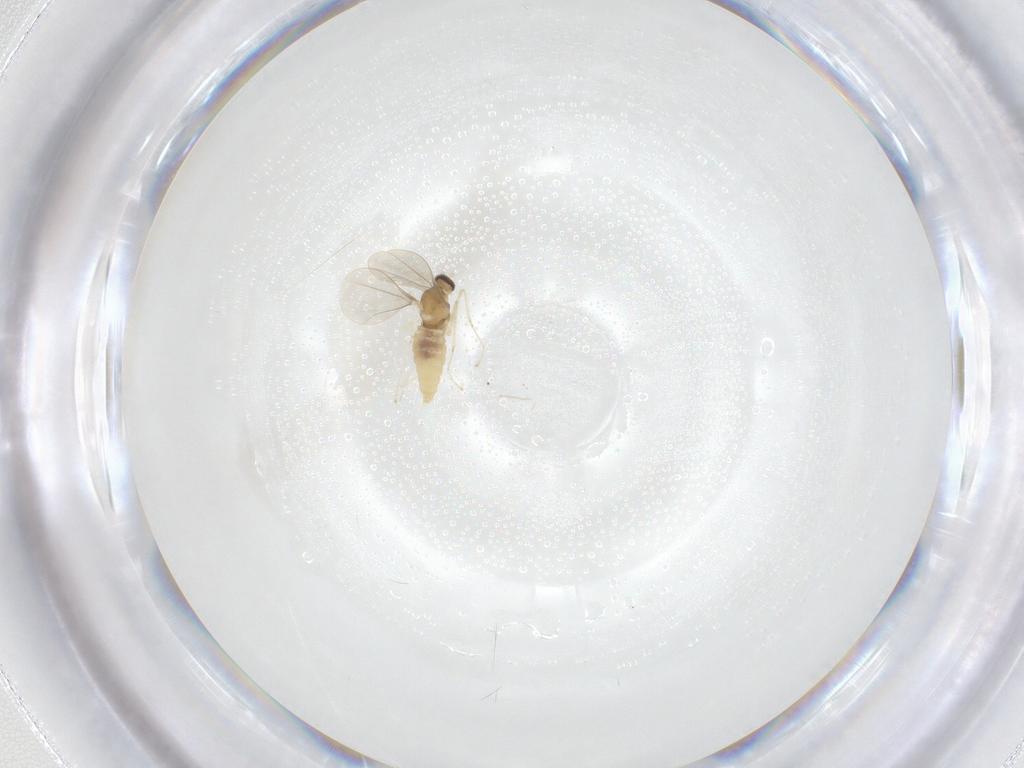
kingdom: Animalia
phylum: Arthropoda
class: Insecta
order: Diptera
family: Cecidomyiidae
